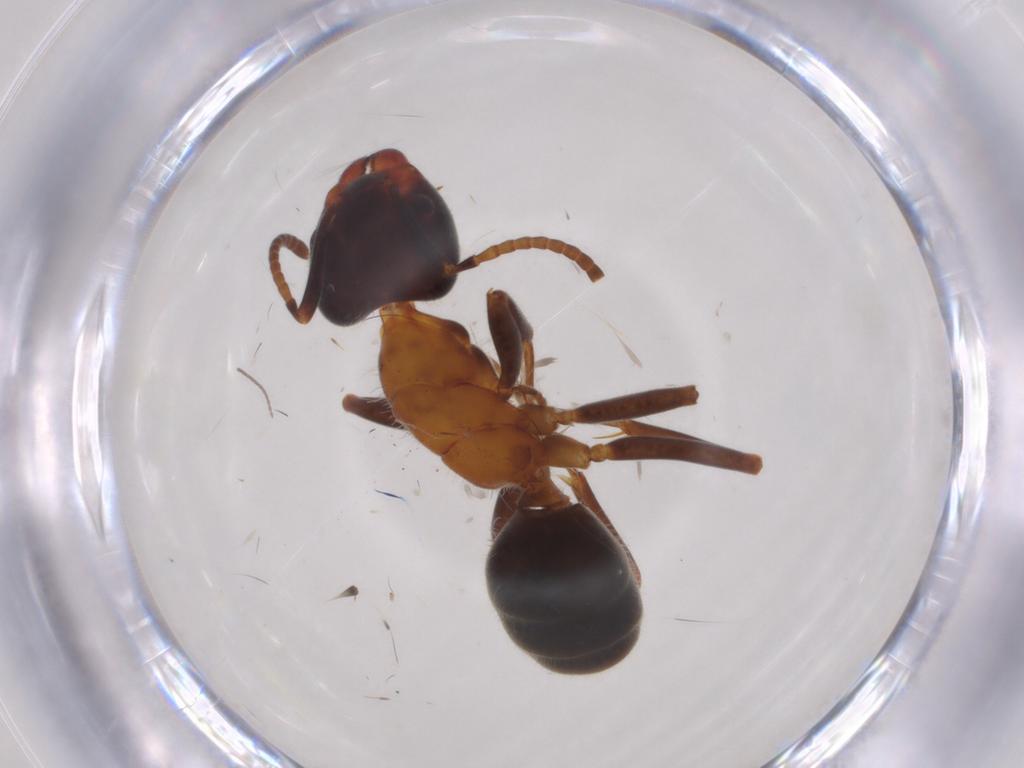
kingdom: Animalia
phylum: Arthropoda
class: Insecta
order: Hymenoptera
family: Formicidae
